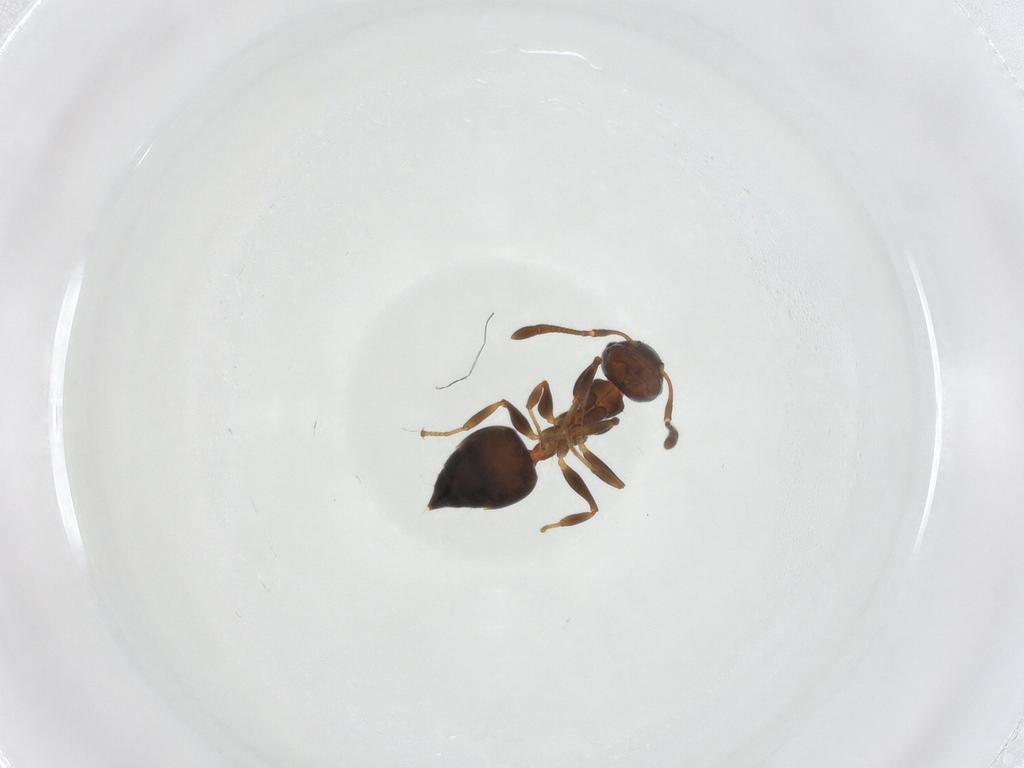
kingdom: Animalia
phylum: Arthropoda
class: Insecta
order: Hymenoptera
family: Formicidae
